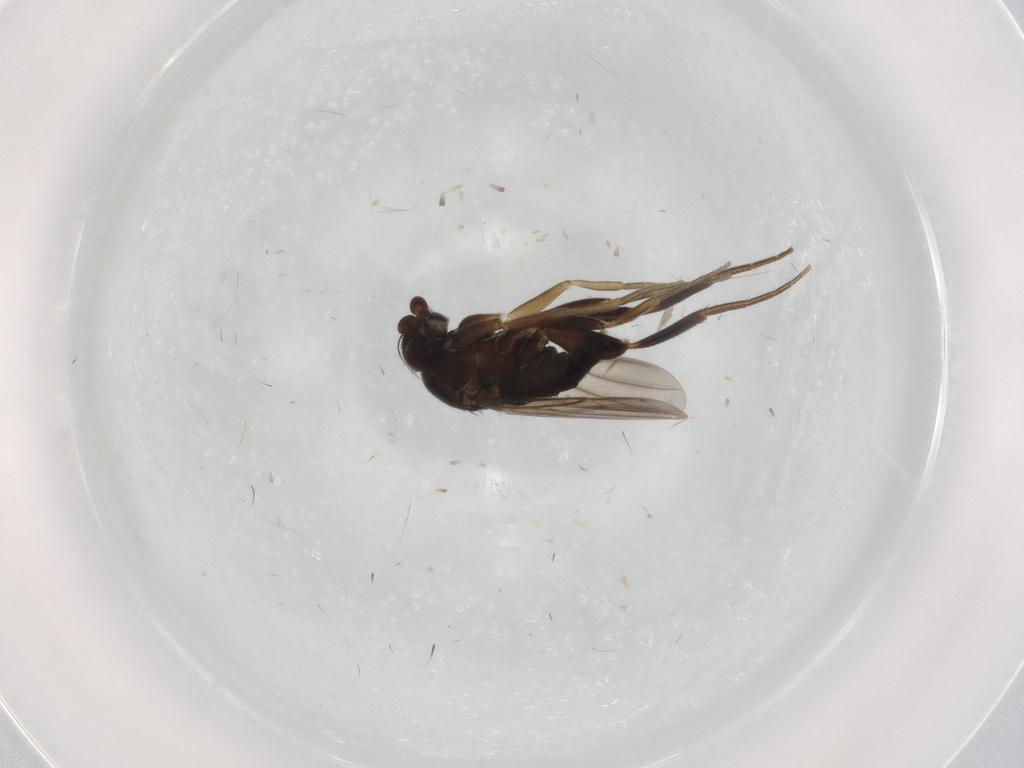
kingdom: Animalia
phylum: Arthropoda
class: Insecta
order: Diptera
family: Phoridae
